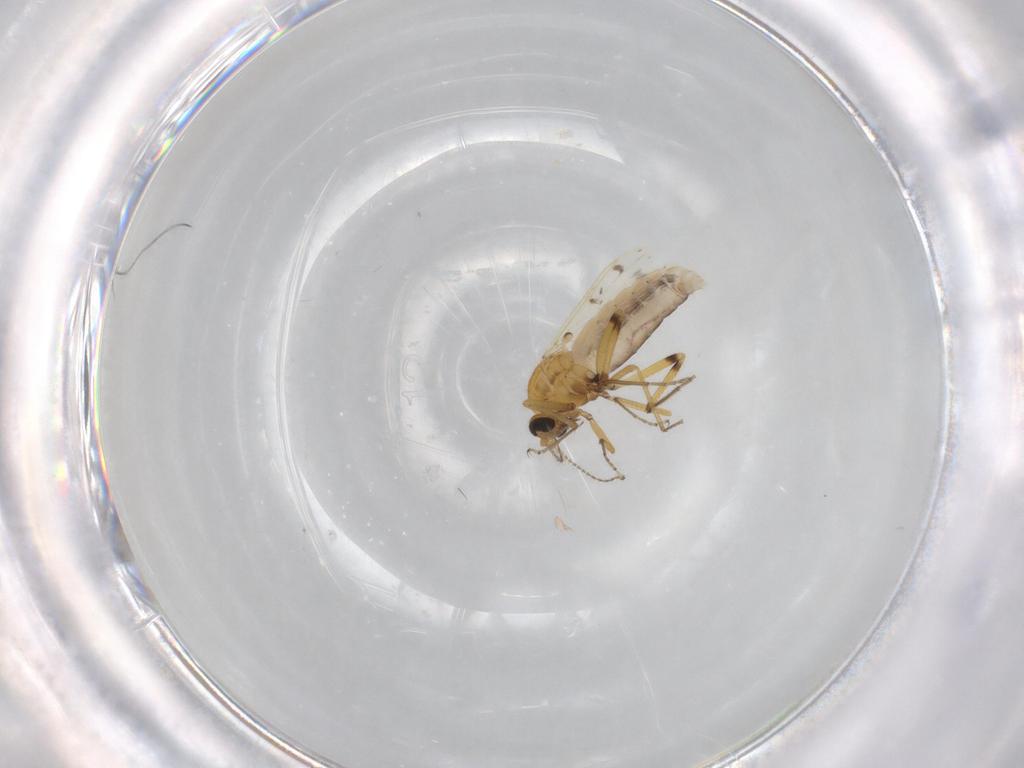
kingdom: Animalia
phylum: Arthropoda
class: Insecta
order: Diptera
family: Ceratopogonidae
